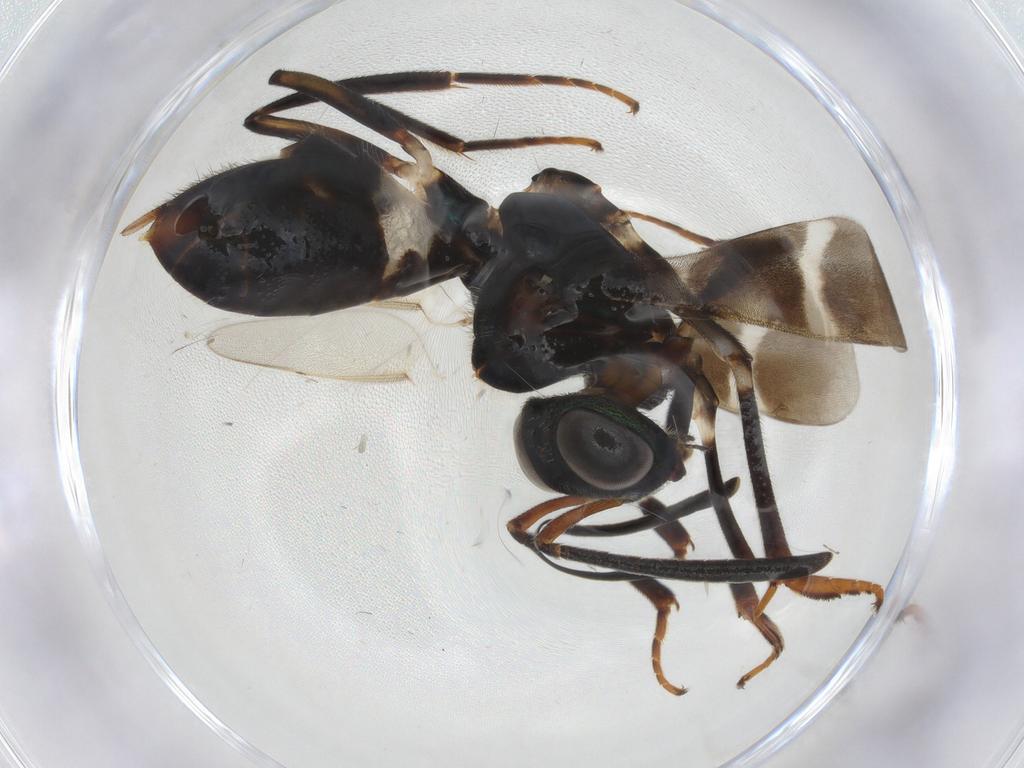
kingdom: Animalia
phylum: Arthropoda
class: Insecta
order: Hymenoptera
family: Eupelmidae
